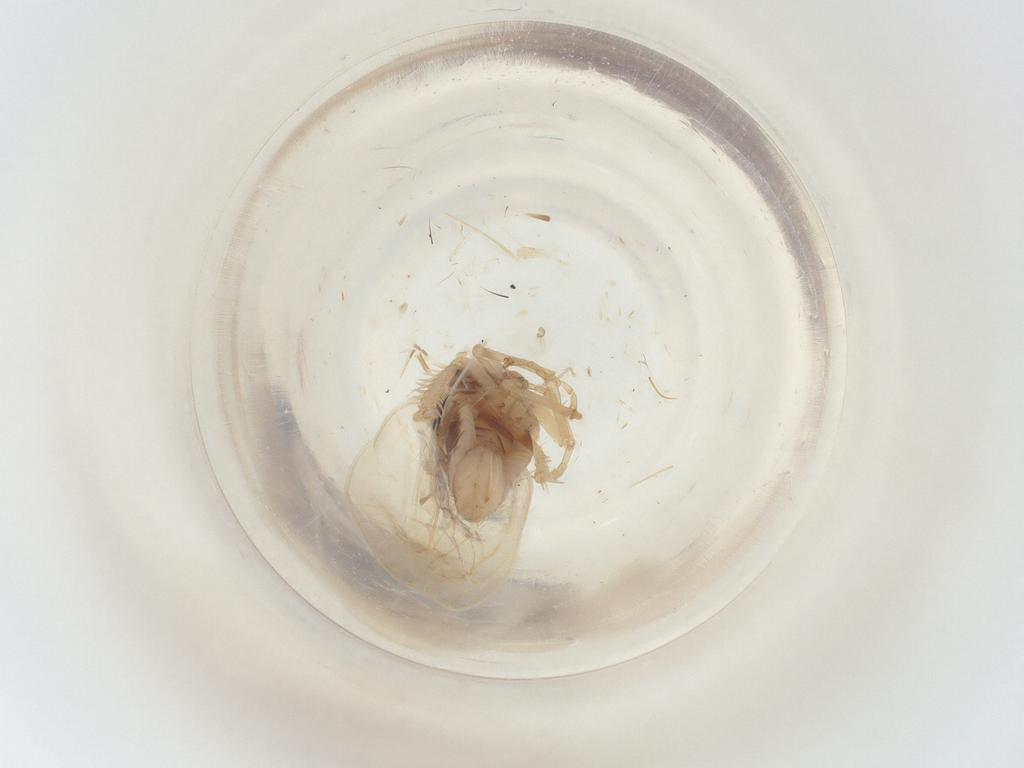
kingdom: Animalia
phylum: Arthropoda
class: Insecta
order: Hemiptera
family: Cicadellidae
